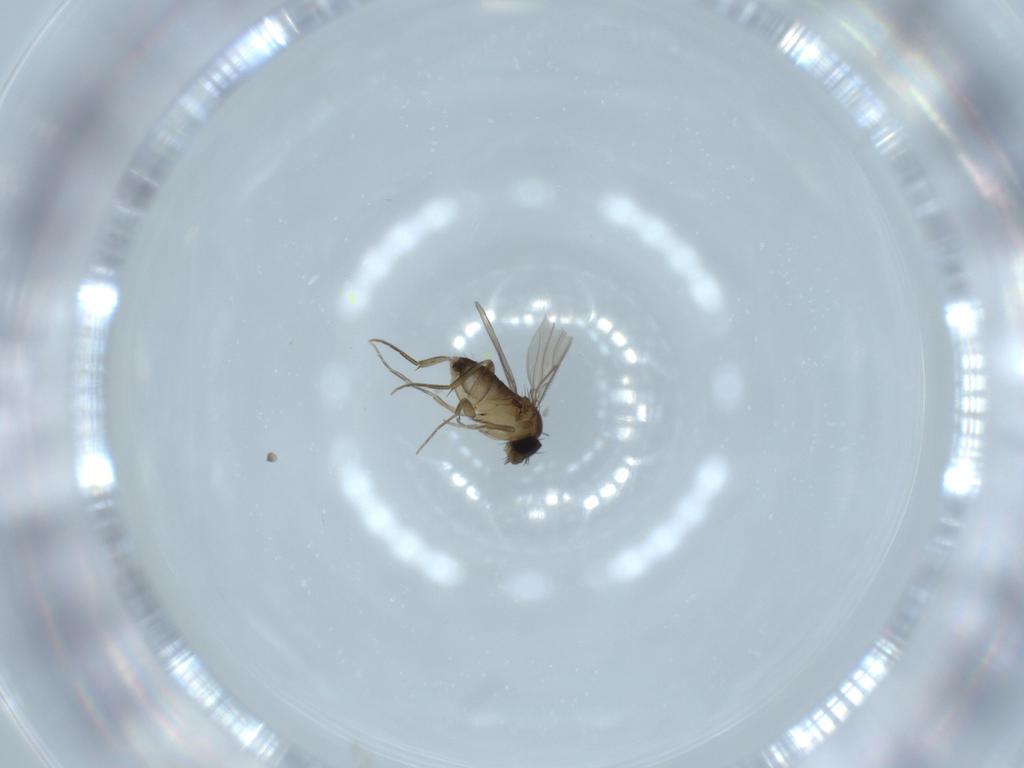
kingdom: Animalia
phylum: Arthropoda
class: Insecta
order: Diptera
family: Phoridae
